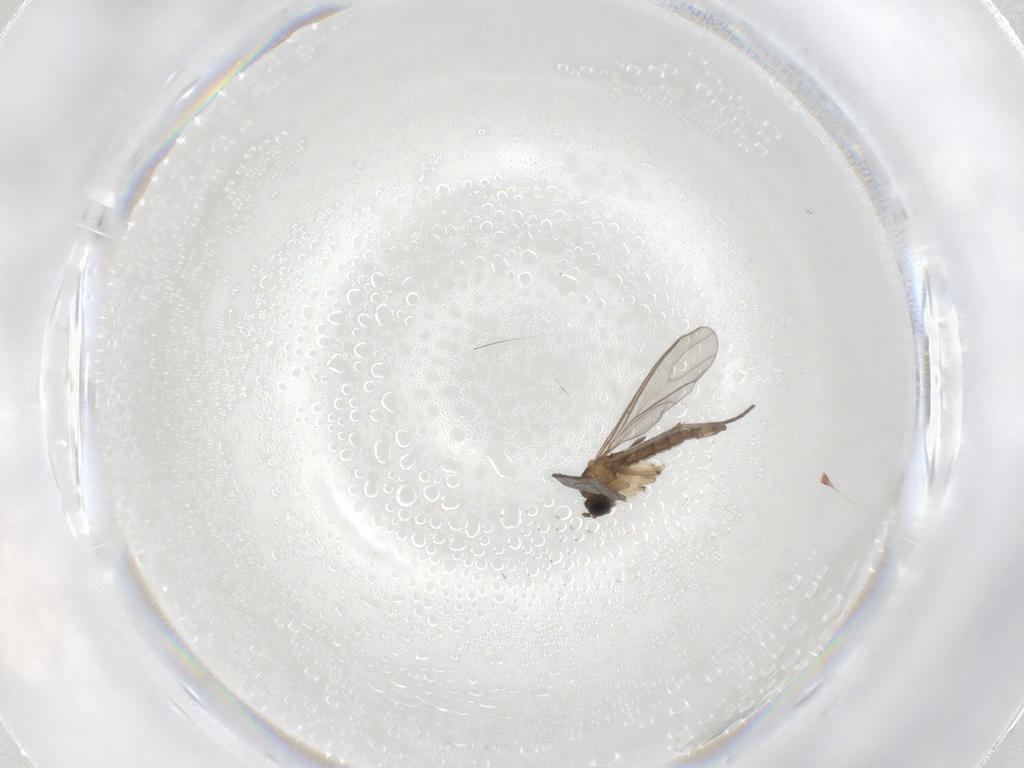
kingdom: Animalia
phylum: Arthropoda
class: Insecta
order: Diptera
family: Sciaridae
